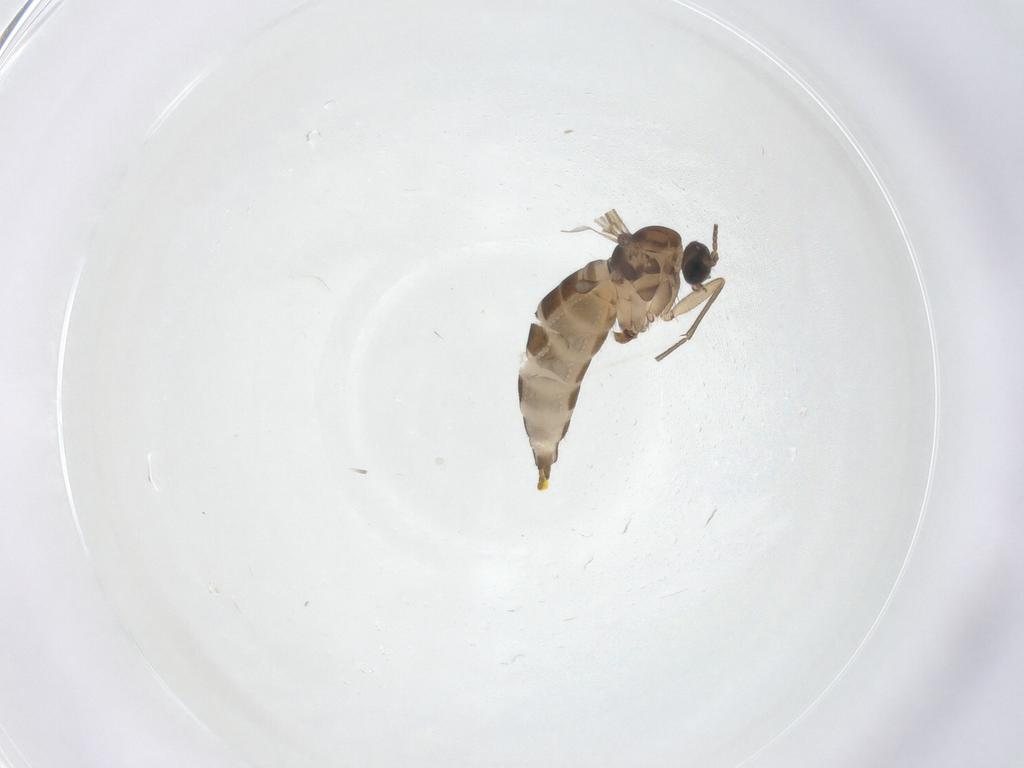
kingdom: Animalia
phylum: Arthropoda
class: Insecta
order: Diptera
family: Sciaridae
